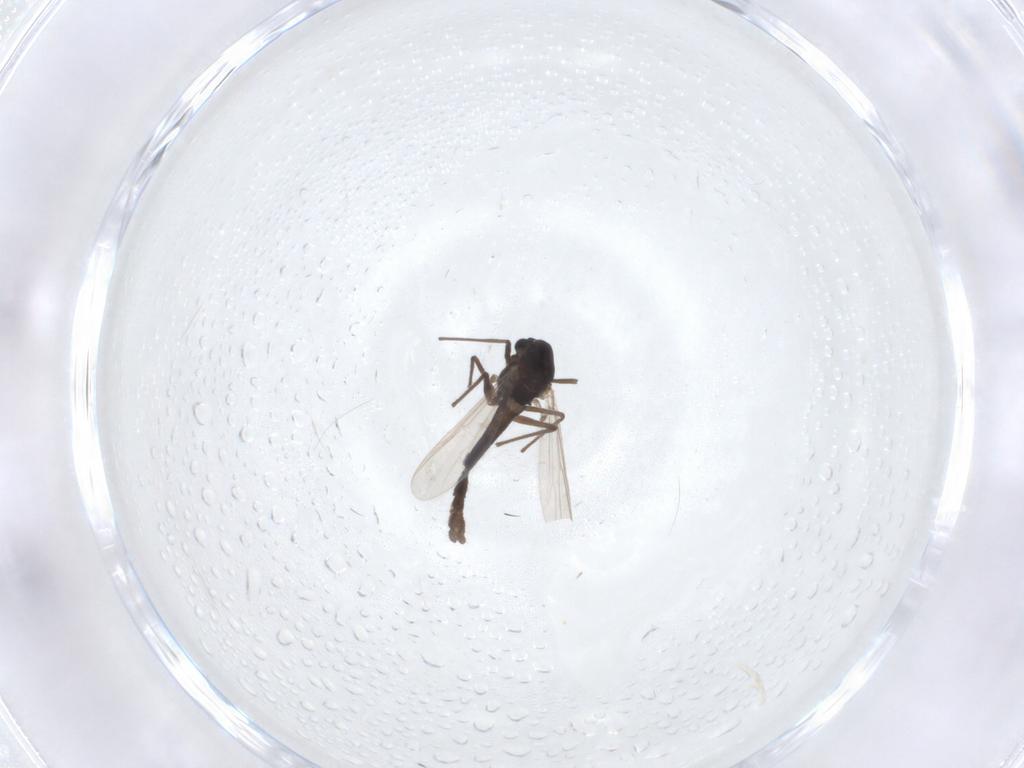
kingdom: Animalia
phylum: Arthropoda
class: Insecta
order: Diptera
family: Chironomidae
